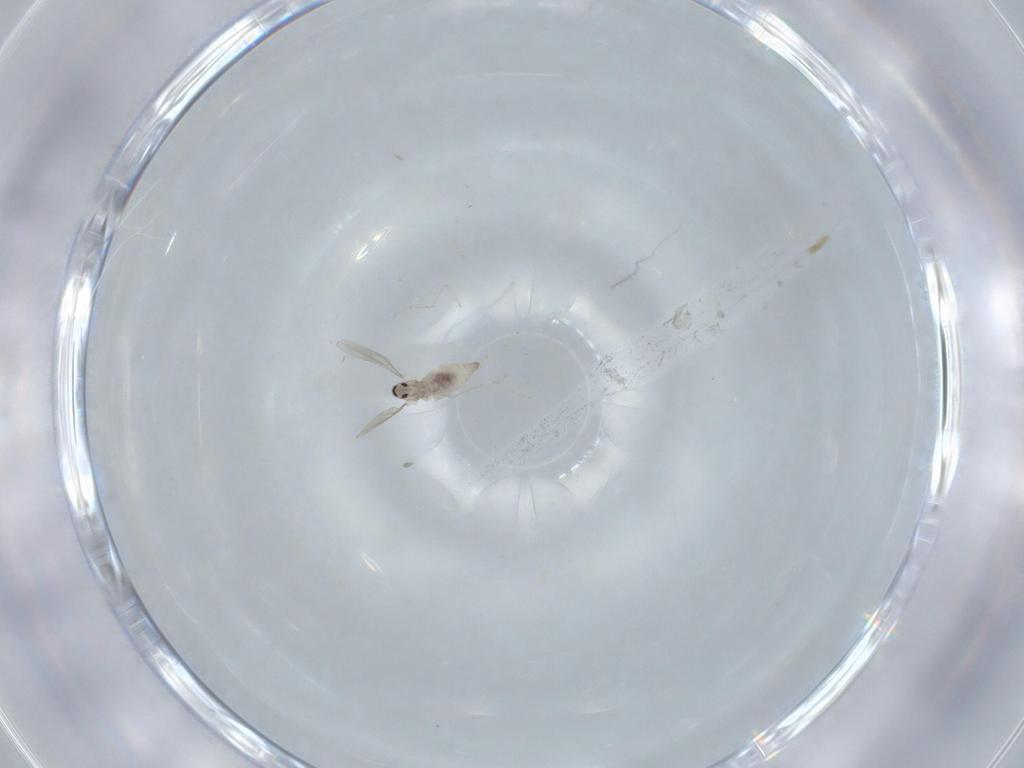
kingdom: Animalia
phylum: Arthropoda
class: Insecta
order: Diptera
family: Cecidomyiidae
